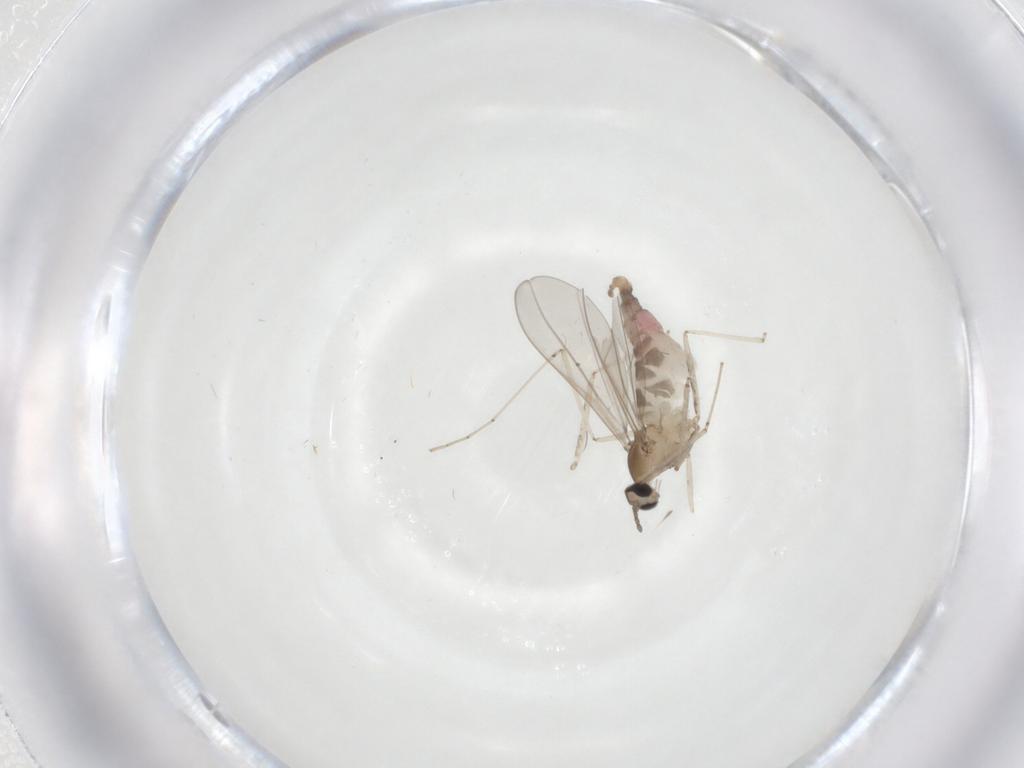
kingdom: Animalia
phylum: Arthropoda
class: Insecta
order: Diptera
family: Cecidomyiidae
